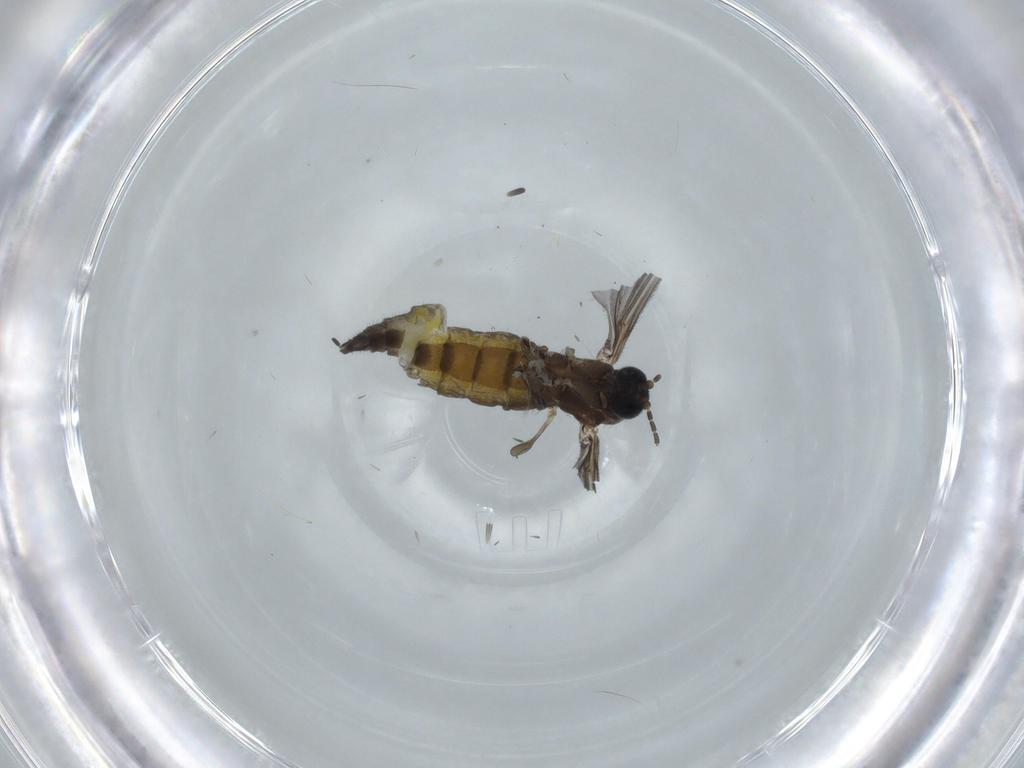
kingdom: Animalia
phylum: Arthropoda
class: Insecta
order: Diptera
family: Sciaridae
